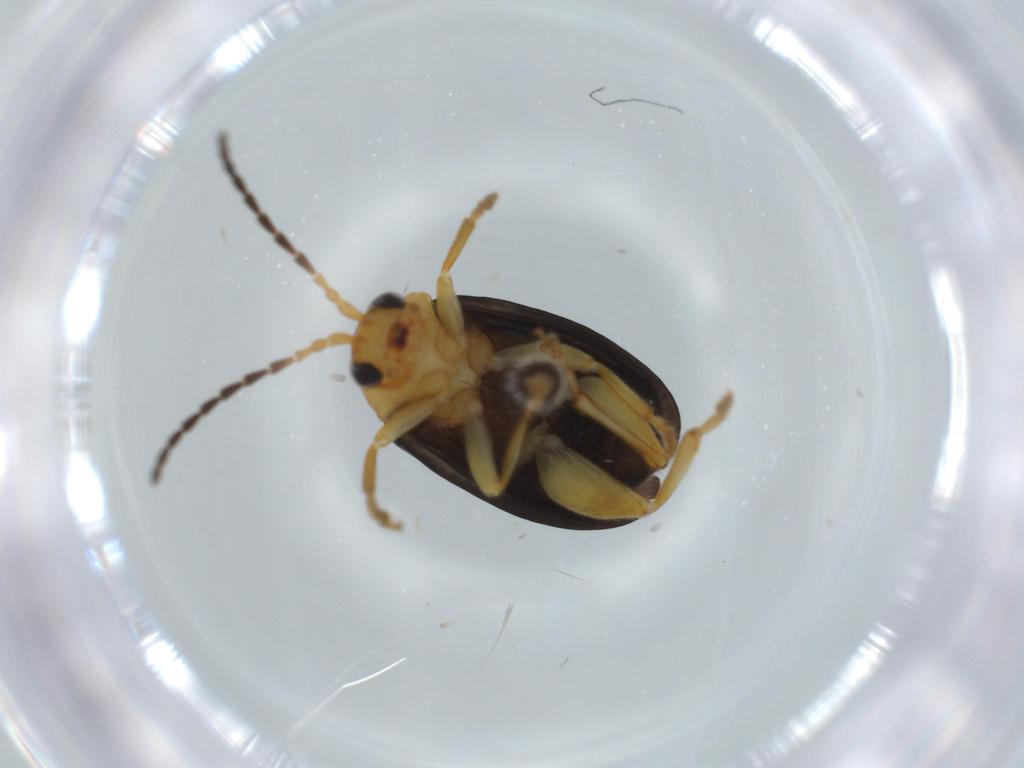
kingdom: Animalia
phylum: Arthropoda
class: Insecta
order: Coleoptera
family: Chrysomelidae
